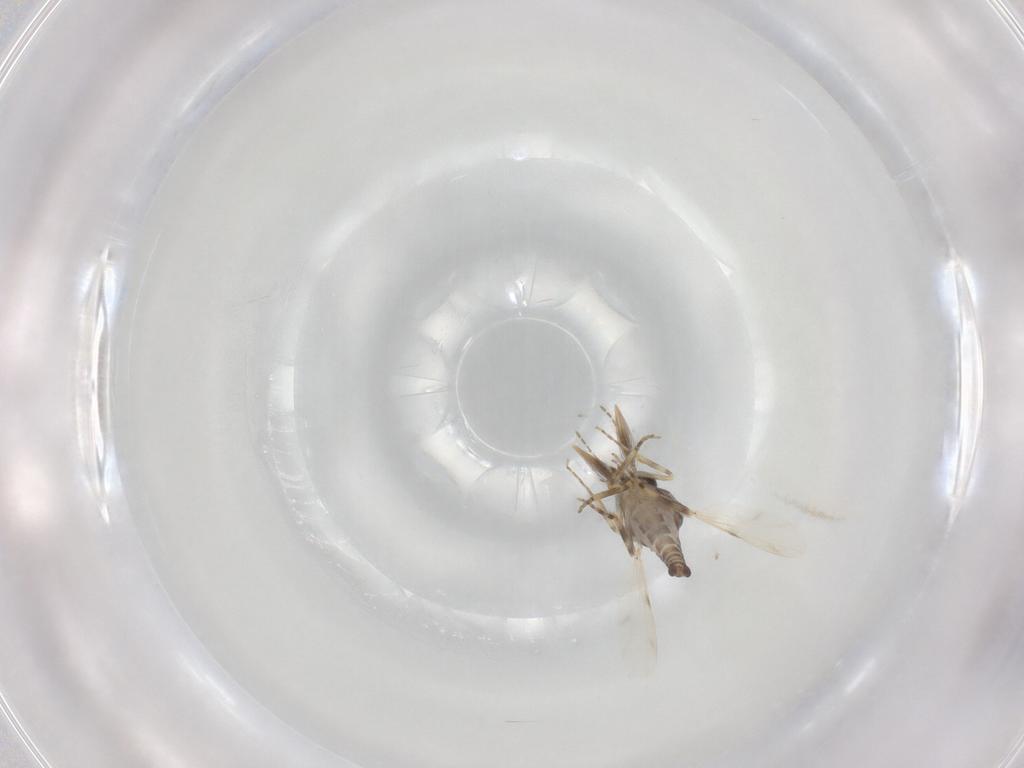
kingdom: Animalia
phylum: Arthropoda
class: Insecta
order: Diptera
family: Ceratopogonidae
